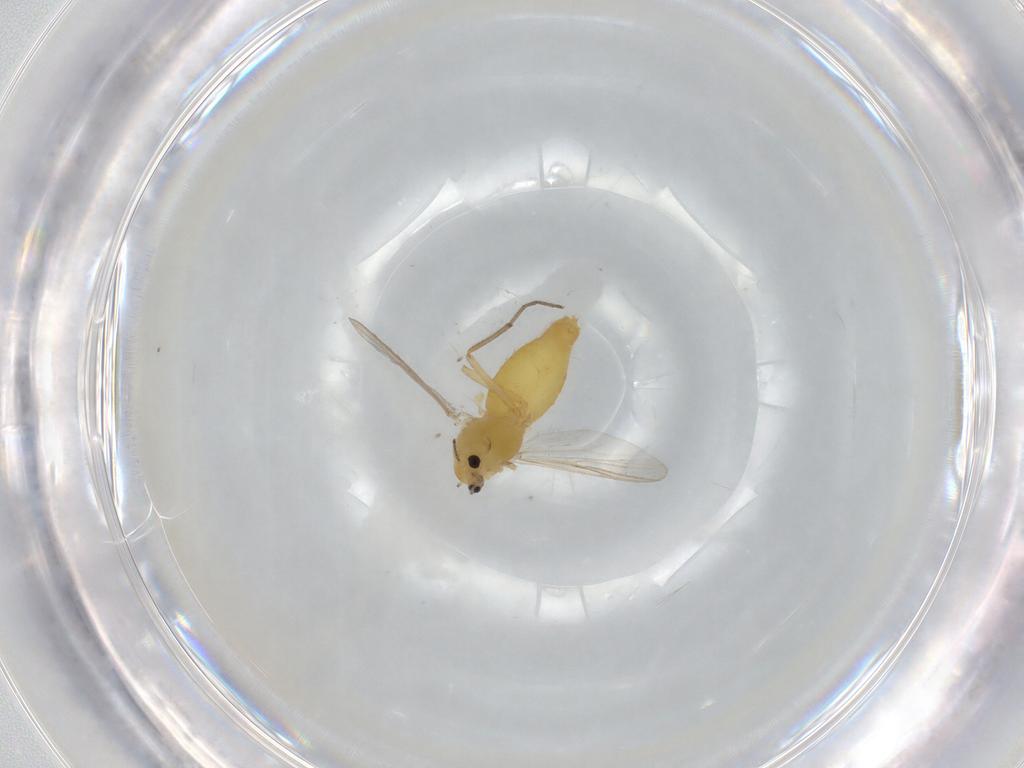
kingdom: Animalia
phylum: Arthropoda
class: Insecta
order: Diptera
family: Chironomidae
